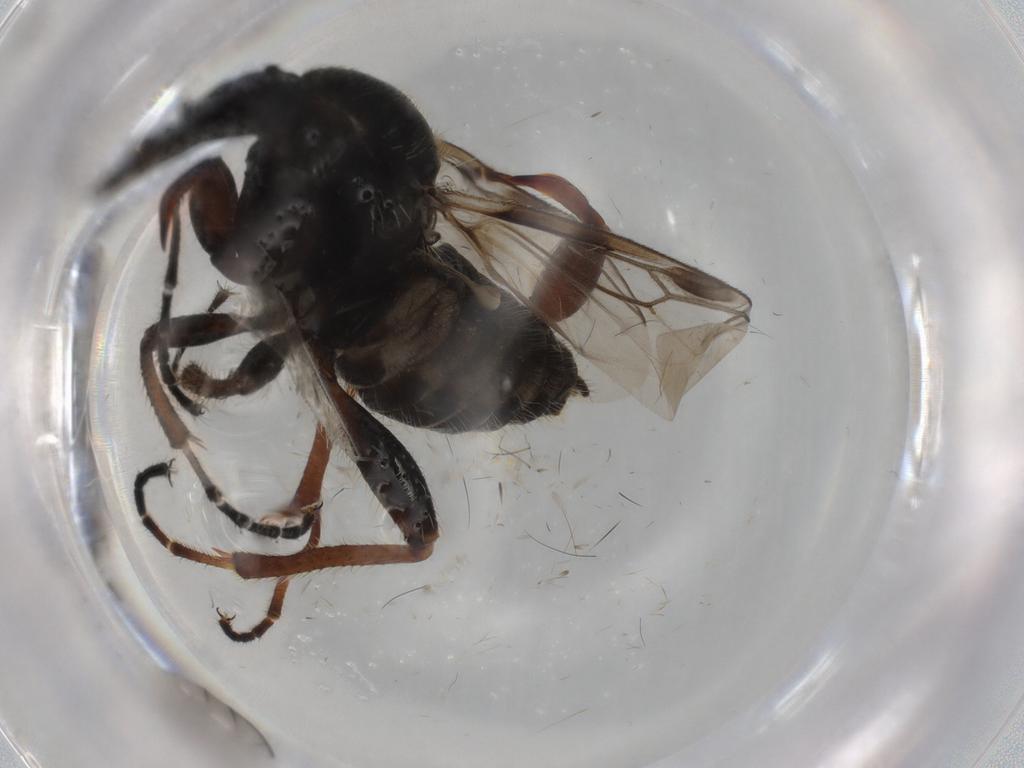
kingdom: Animalia
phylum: Arthropoda
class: Insecta
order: Diptera
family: Bibionidae
